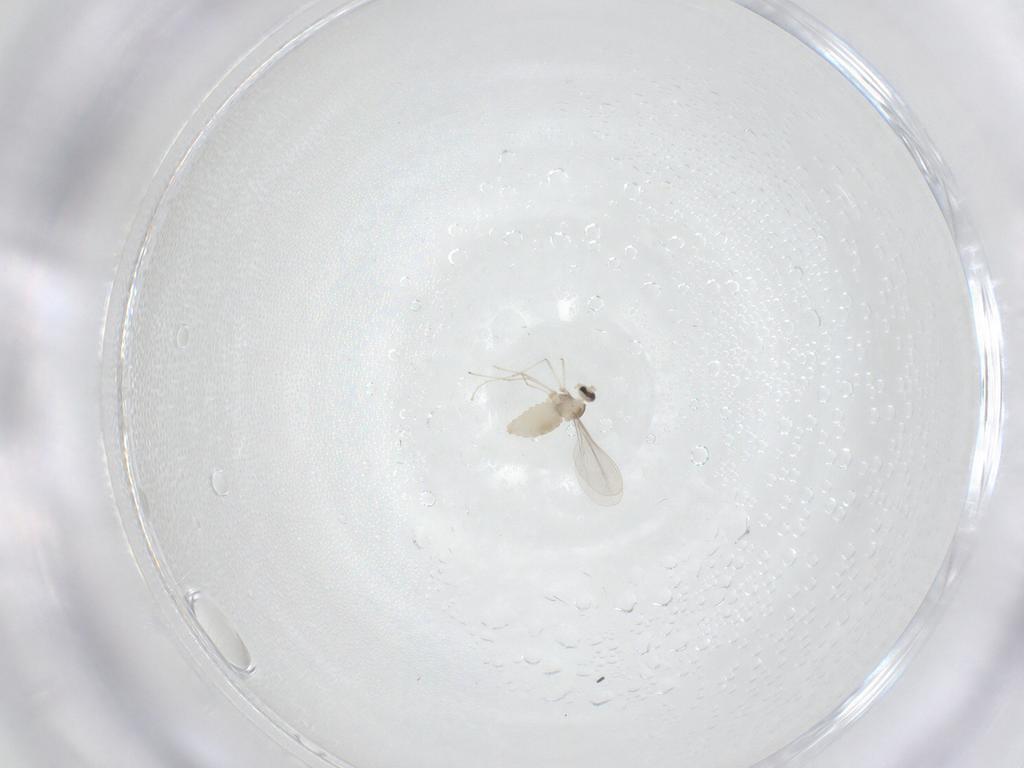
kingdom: Animalia
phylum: Arthropoda
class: Insecta
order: Diptera
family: Cecidomyiidae
